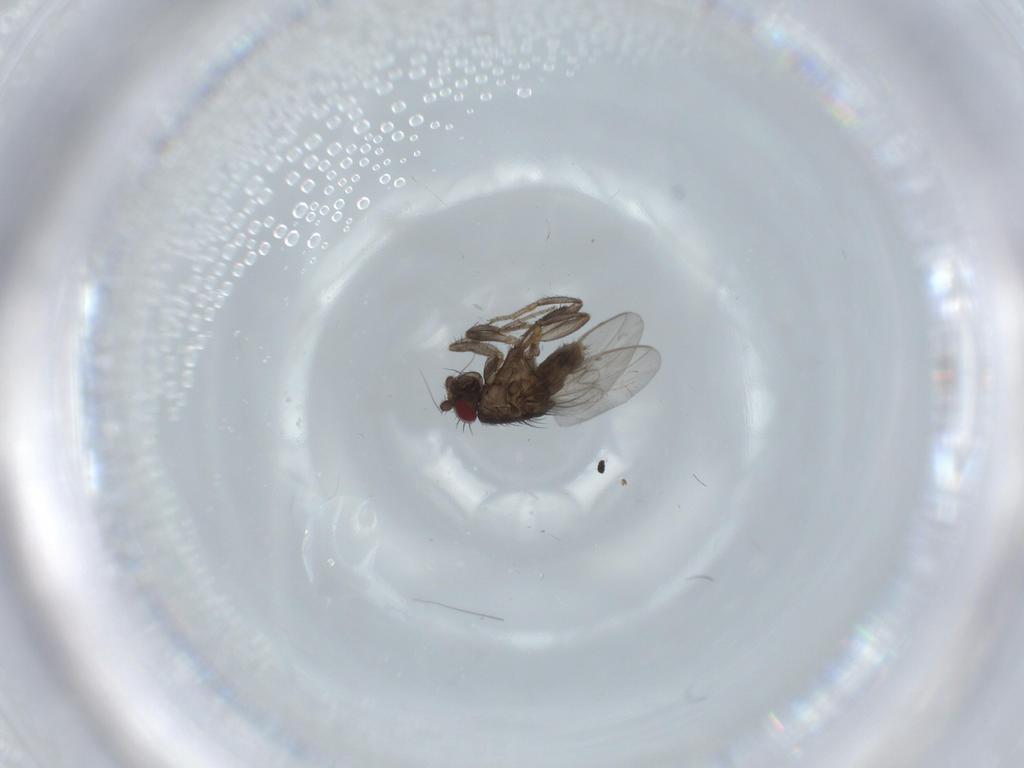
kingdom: Animalia
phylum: Arthropoda
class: Insecta
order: Diptera
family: Sphaeroceridae
